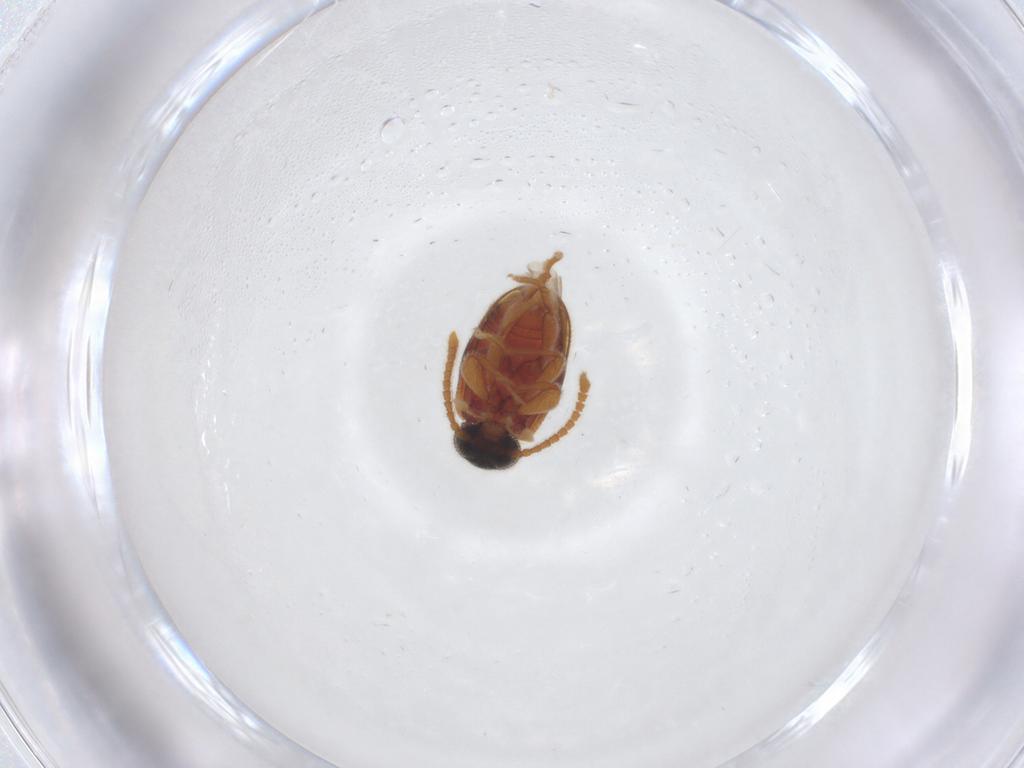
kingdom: Animalia
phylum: Arthropoda
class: Insecta
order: Coleoptera
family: Aderidae
